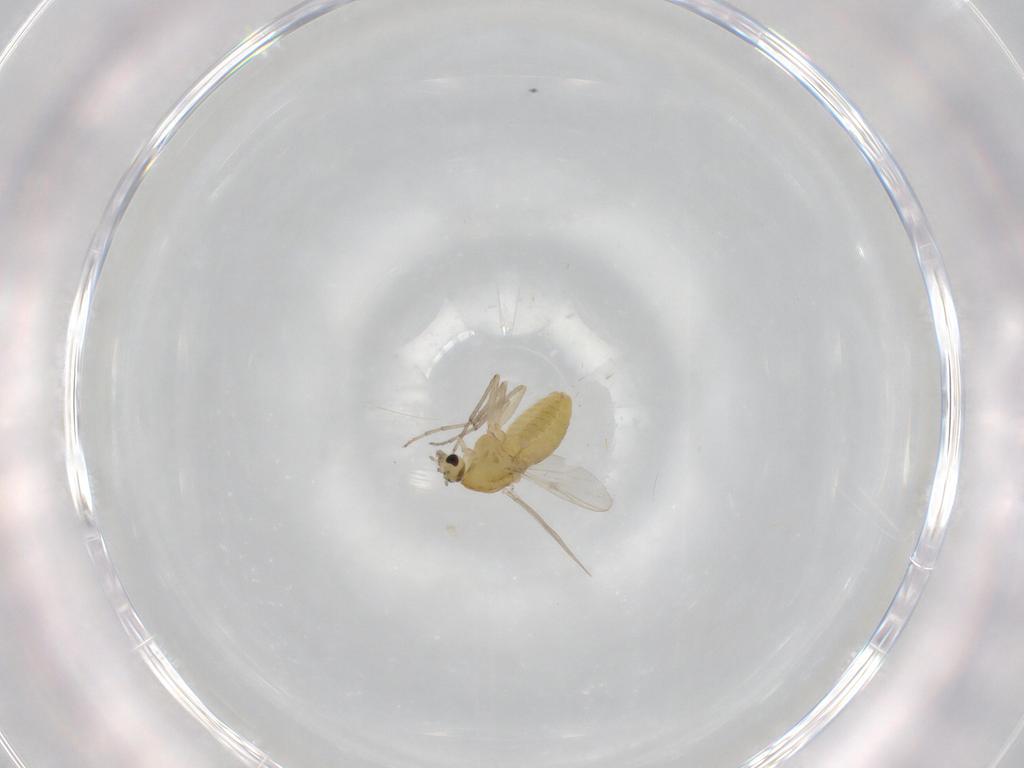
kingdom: Animalia
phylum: Arthropoda
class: Insecta
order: Diptera
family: Chironomidae
